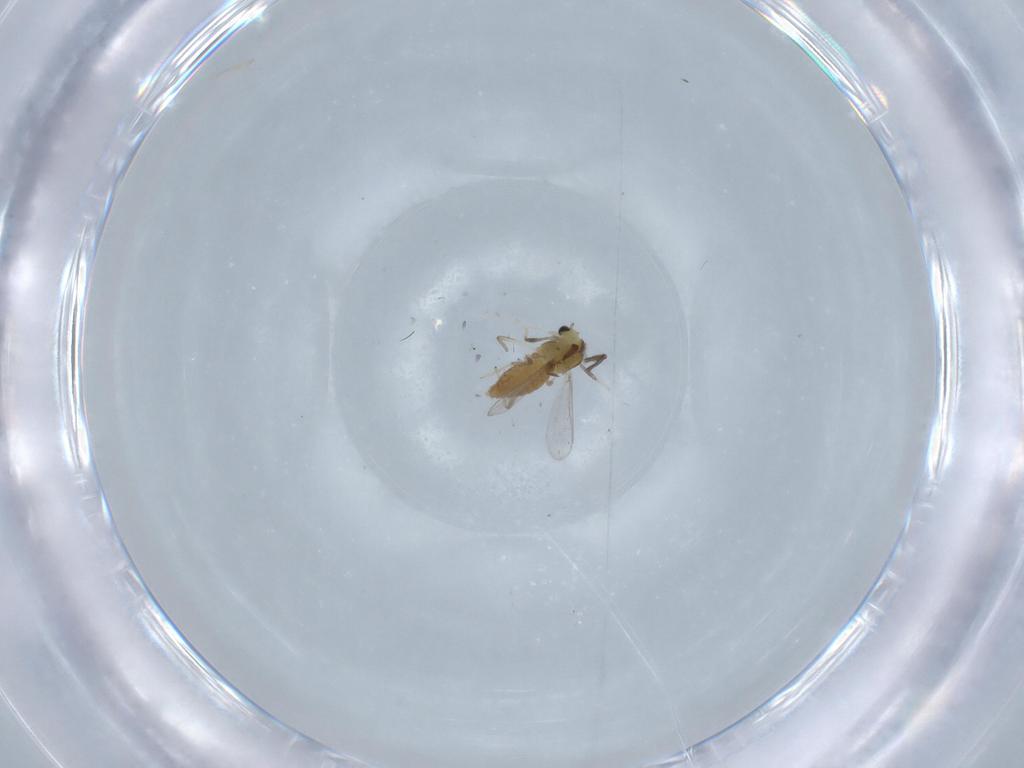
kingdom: Animalia
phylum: Arthropoda
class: Insecta
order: Diptera
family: Chironomidae
